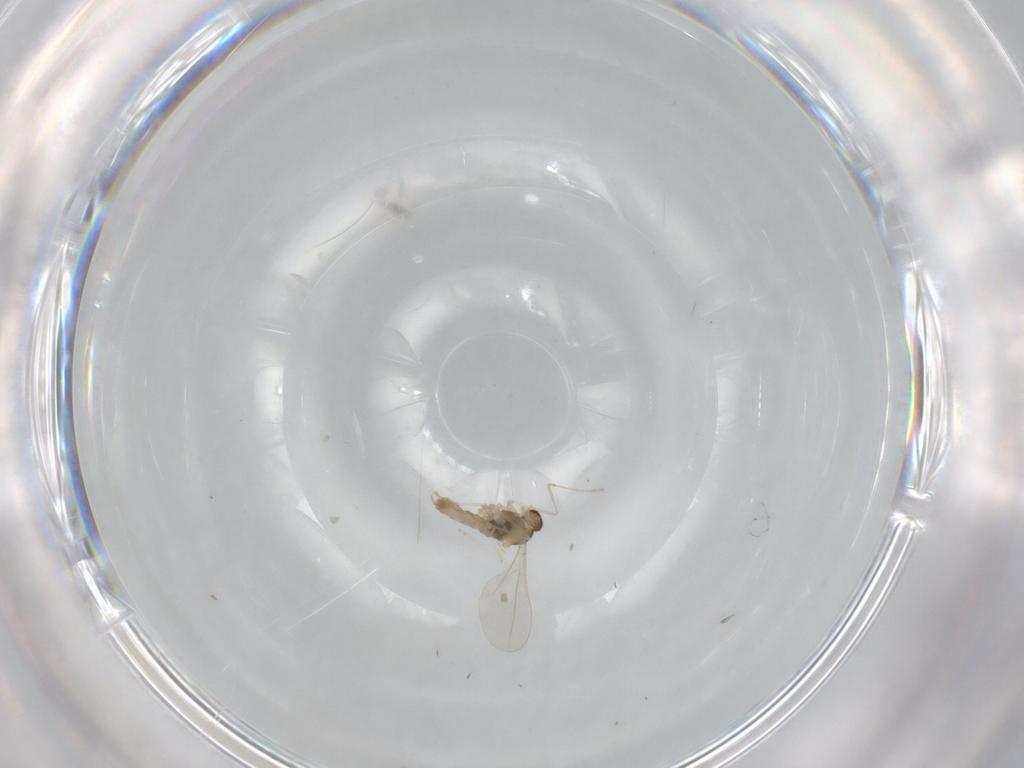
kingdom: Animalia
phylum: Arthropoda
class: Insecta
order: Diptera
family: Cecidomyiidae
